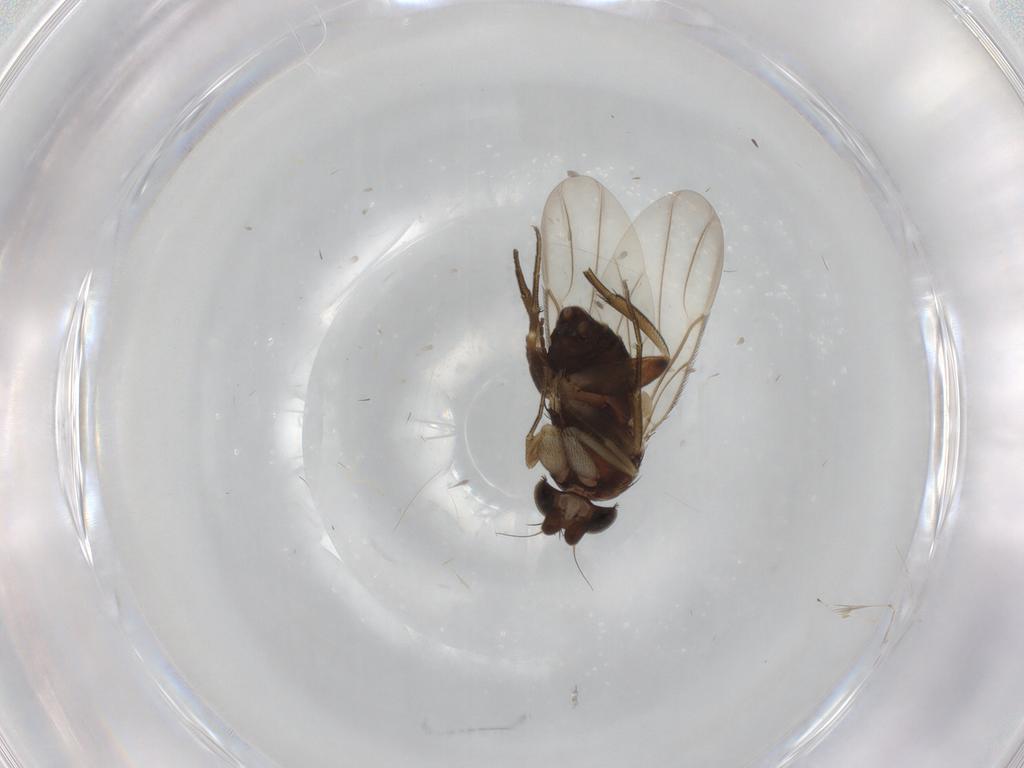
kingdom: Animalia
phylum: Arthropoda
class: Insecta
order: Diptera
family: Phoridae
